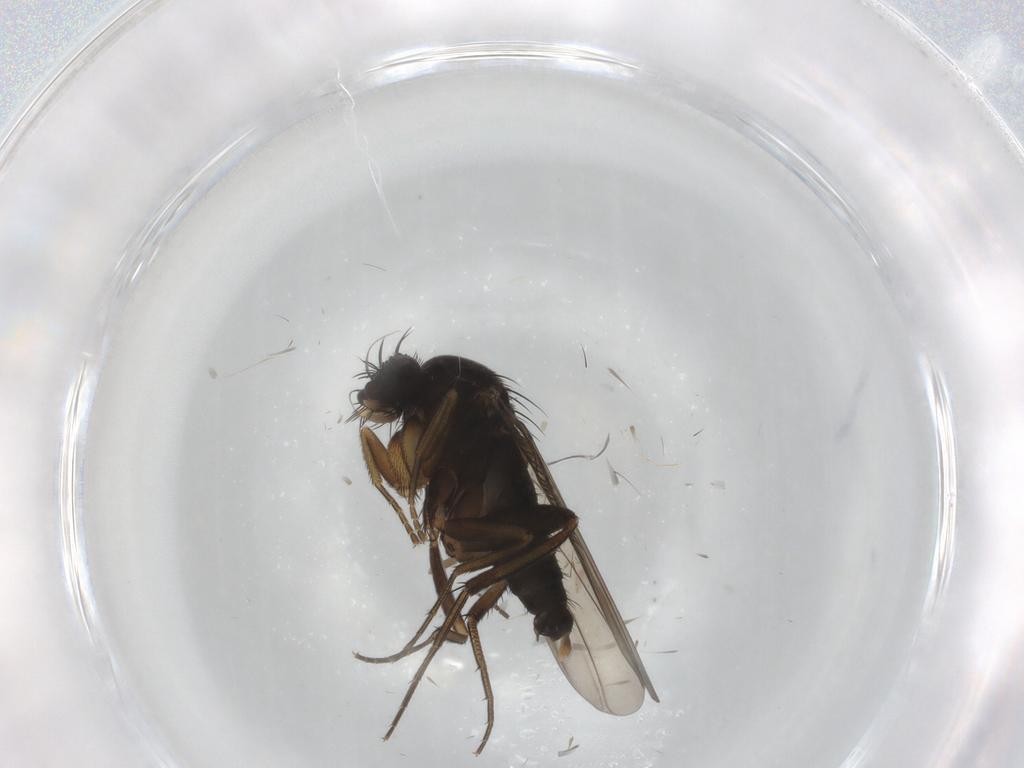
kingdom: Animalia
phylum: Arthropoda
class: Insecta
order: Diptera
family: Phoridae
